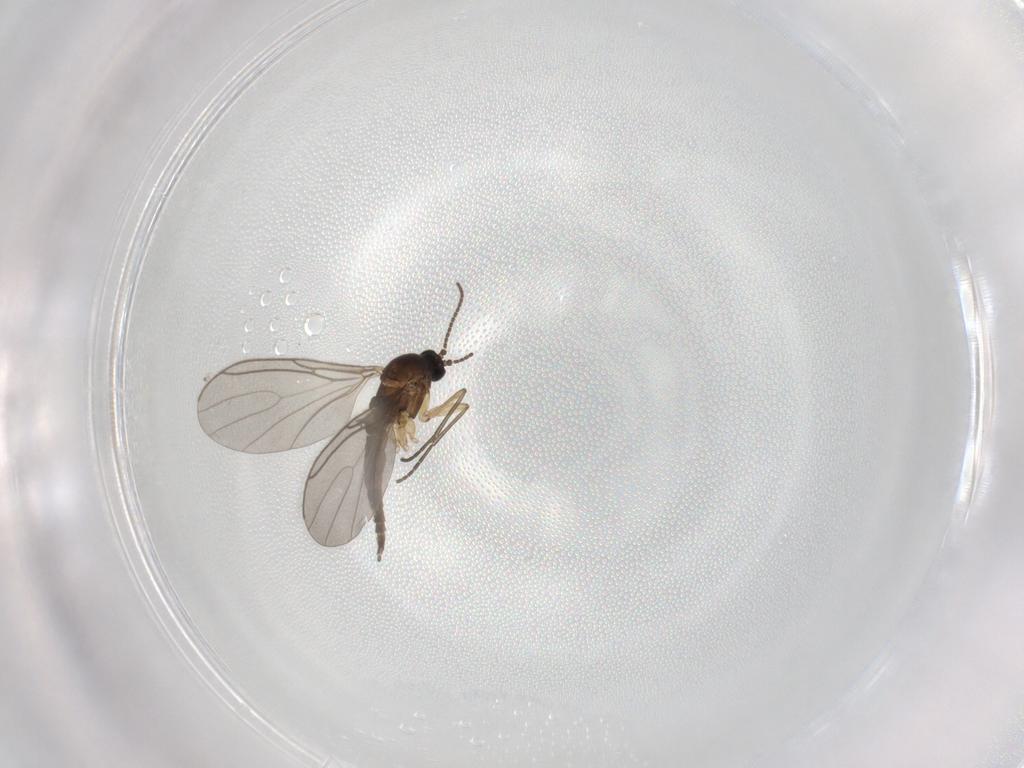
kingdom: Animalia
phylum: Arthropoda
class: Insecta
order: Diptera
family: Sciaridae
